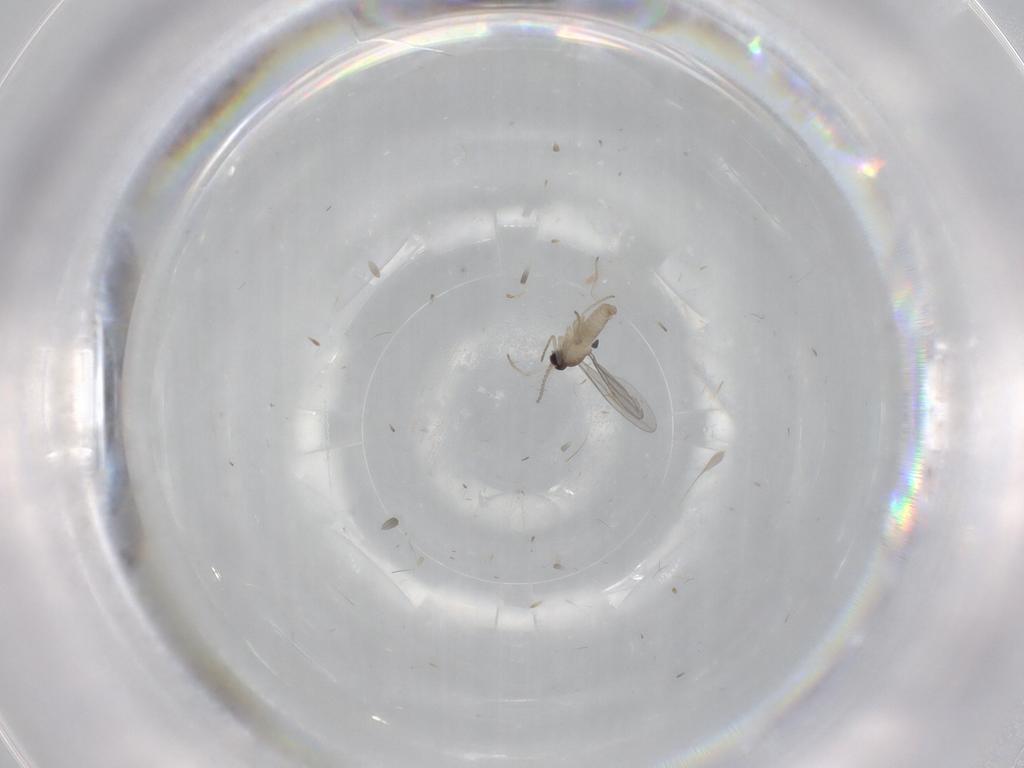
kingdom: Animalia
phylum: Arthropoda
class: Insecta
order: Diptera
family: Cecidomyiidae
